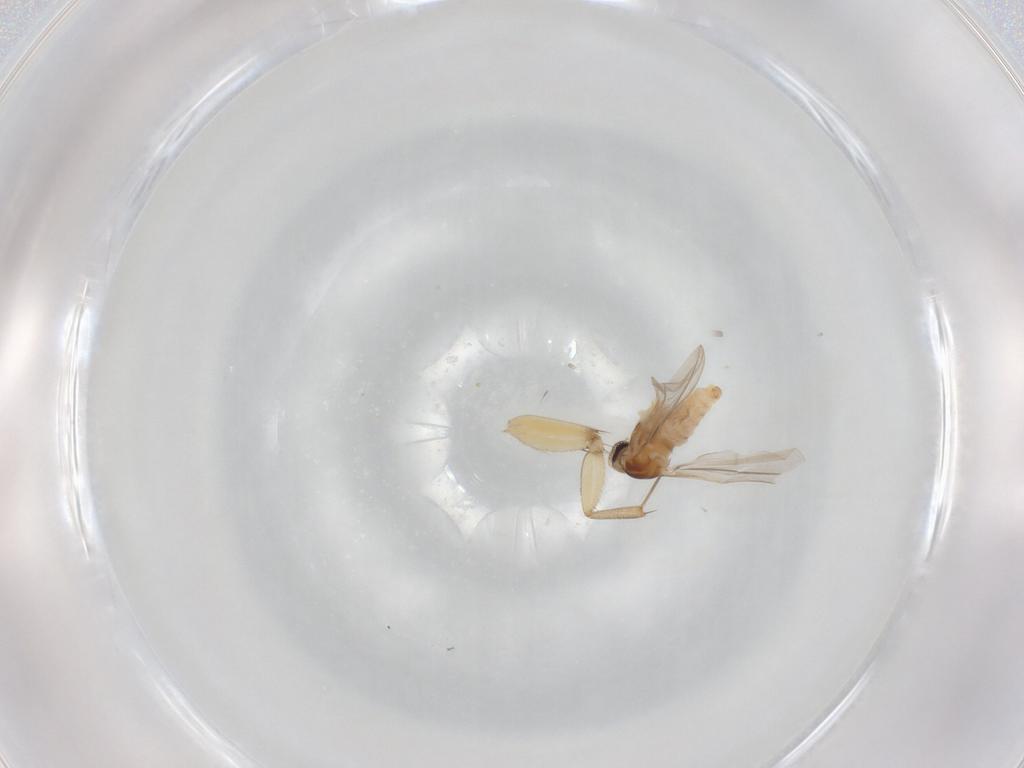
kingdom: Animalia
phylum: Arthropoda
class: Insecta
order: Diptera
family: Cecidomyiidae
